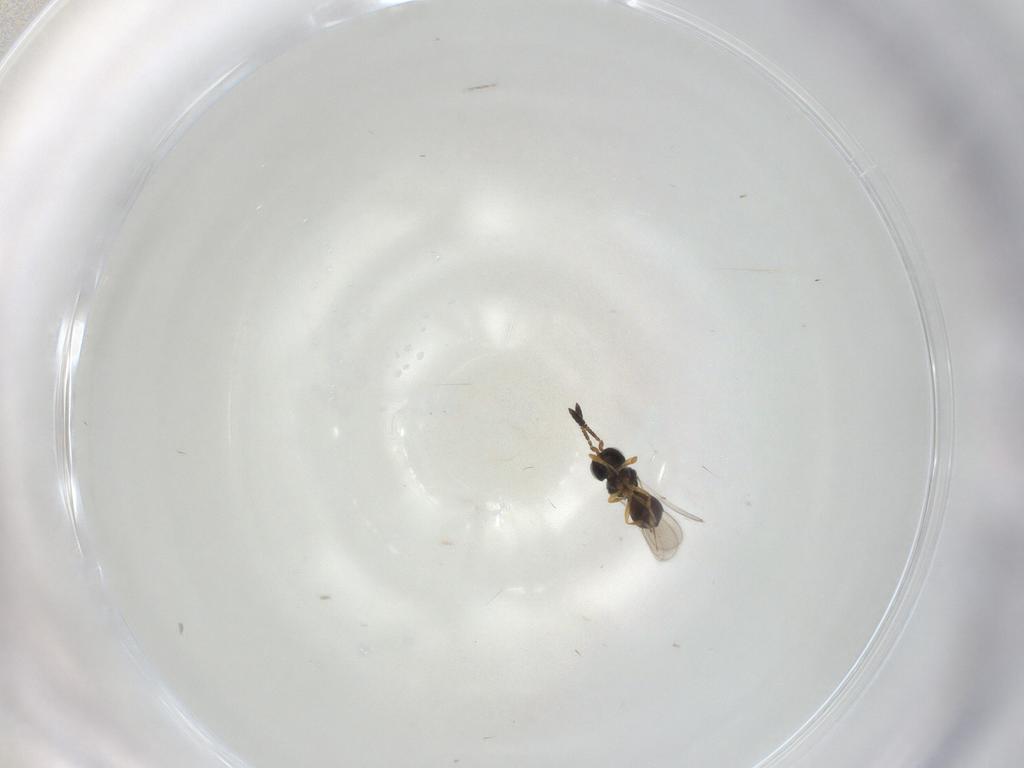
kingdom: Animalia
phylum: Arthropoda
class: Insecta
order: Hymenoptera
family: Scelionidae
